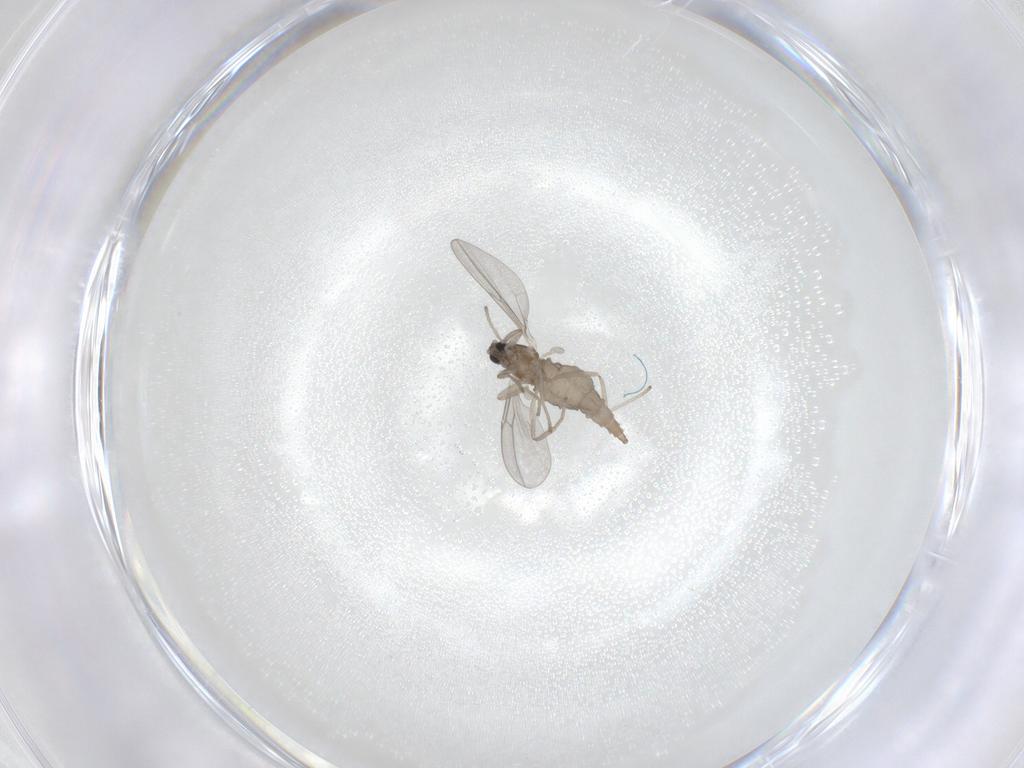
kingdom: Animalia
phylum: Arthropoda
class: Insecta
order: Diptera
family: Cecidomyiidae
